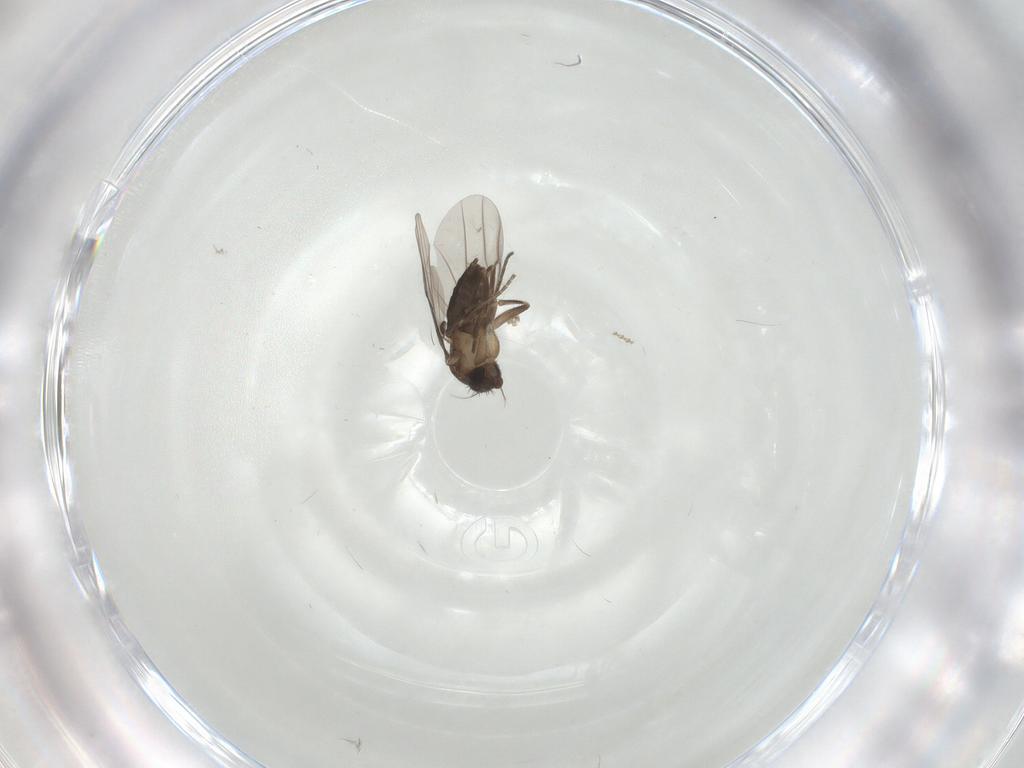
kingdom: Animalia
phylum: Arthropoda
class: Insecta
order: Diptera
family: Phoridae
